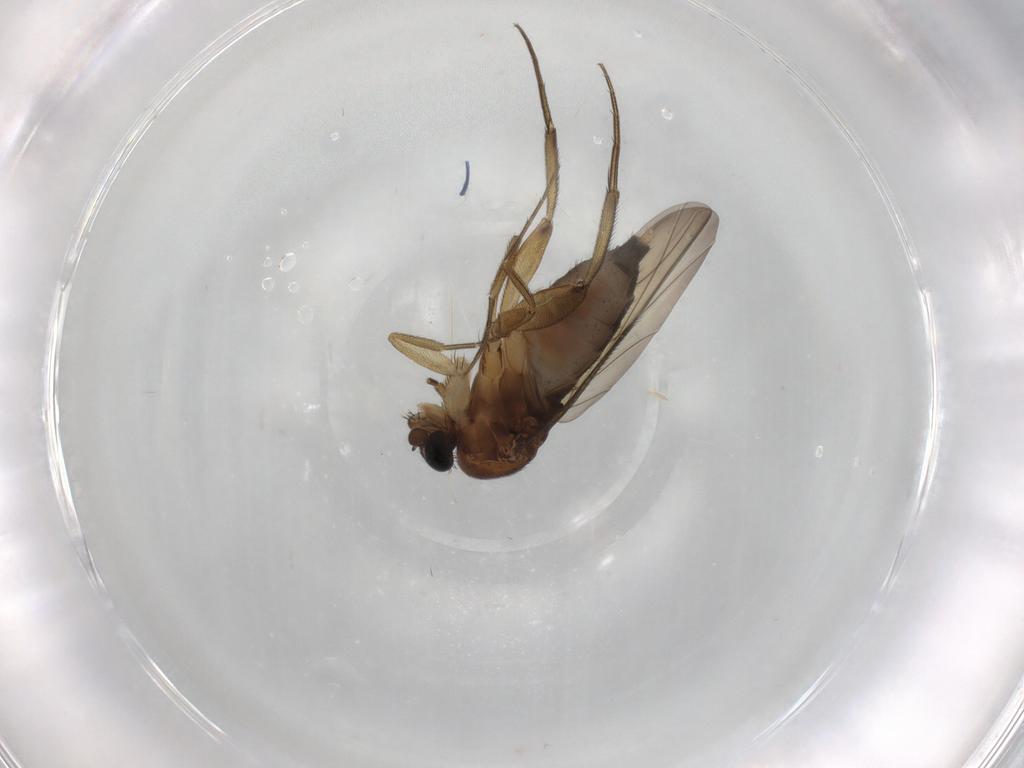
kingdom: Animalia
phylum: Arthropoda
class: Insecta
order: Diptera
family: Phoridae
